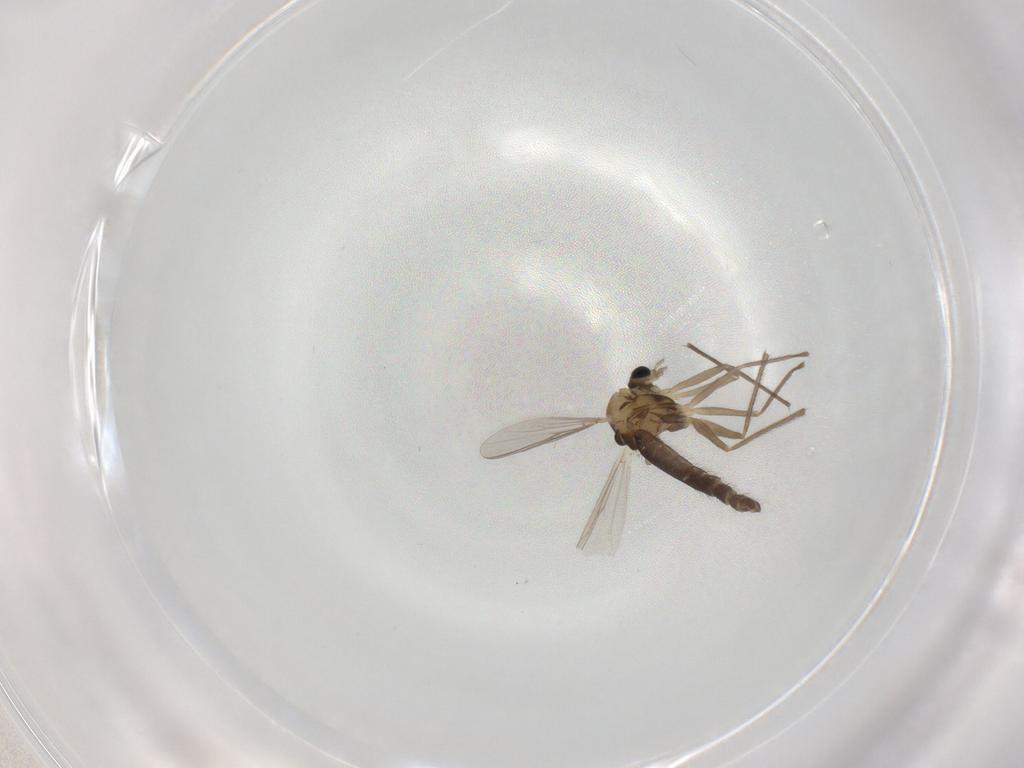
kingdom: Animalia
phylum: Arthropoda
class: Insecta
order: Diptera
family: Chironomidae
